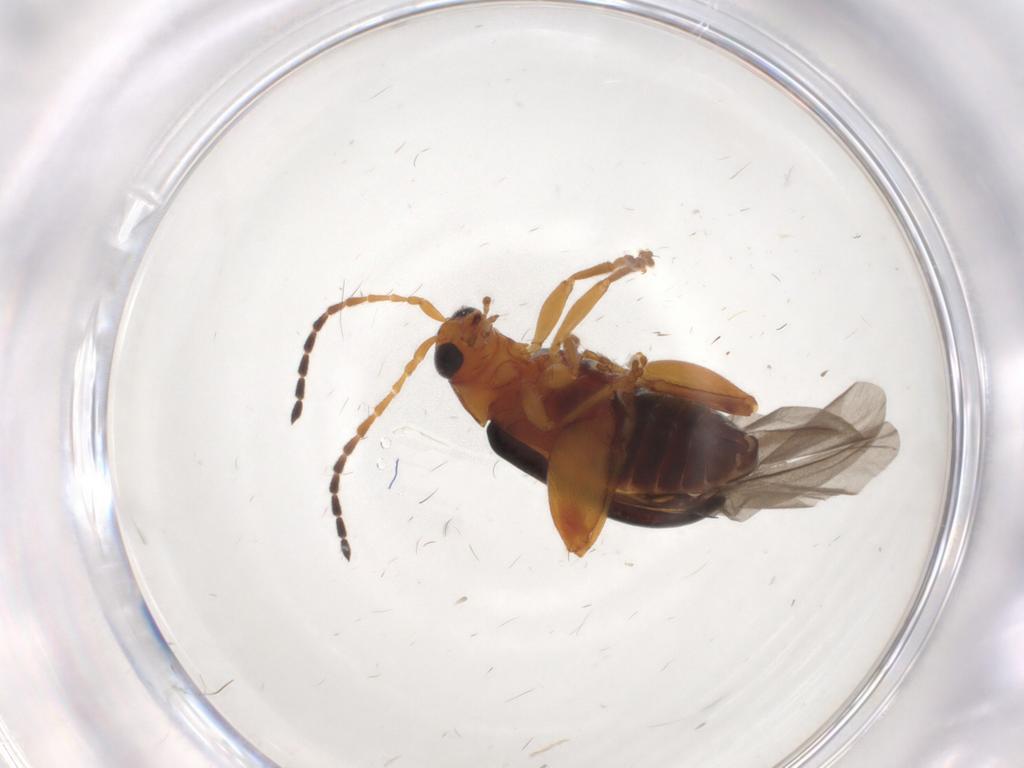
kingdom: Animalia
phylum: Arthropoda
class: Insecta
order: Coleoptera
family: Chrysomelidae
